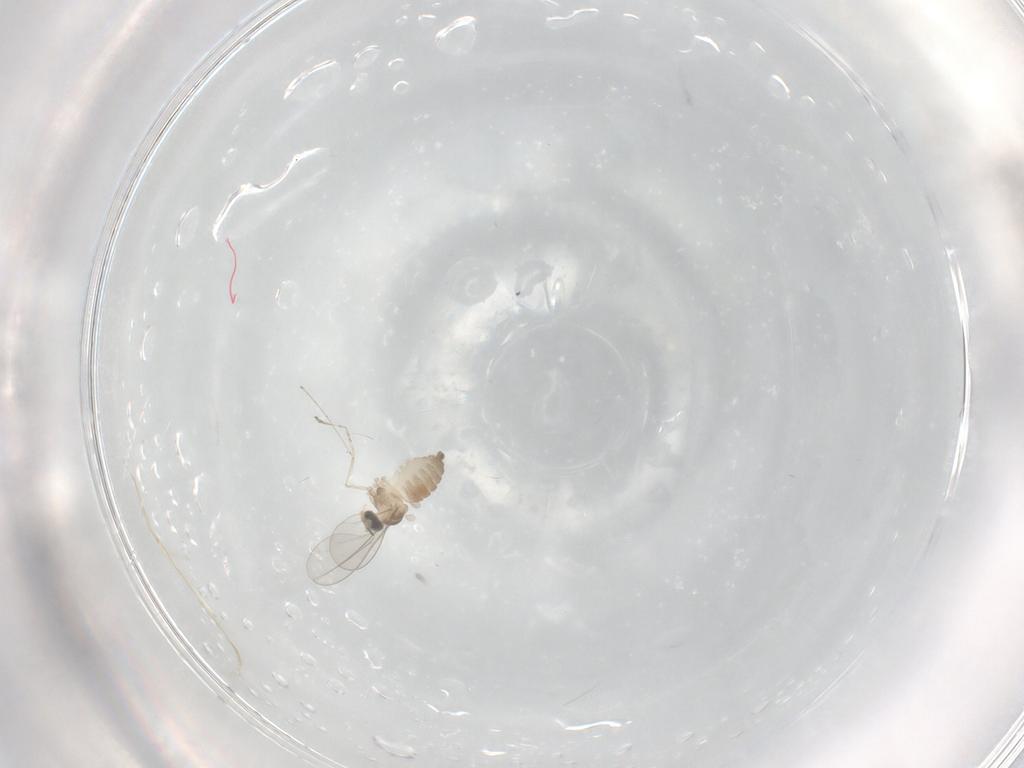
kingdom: Animalia
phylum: Arthropoda
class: Insecta
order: Diptera
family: Cecidomyiidae
